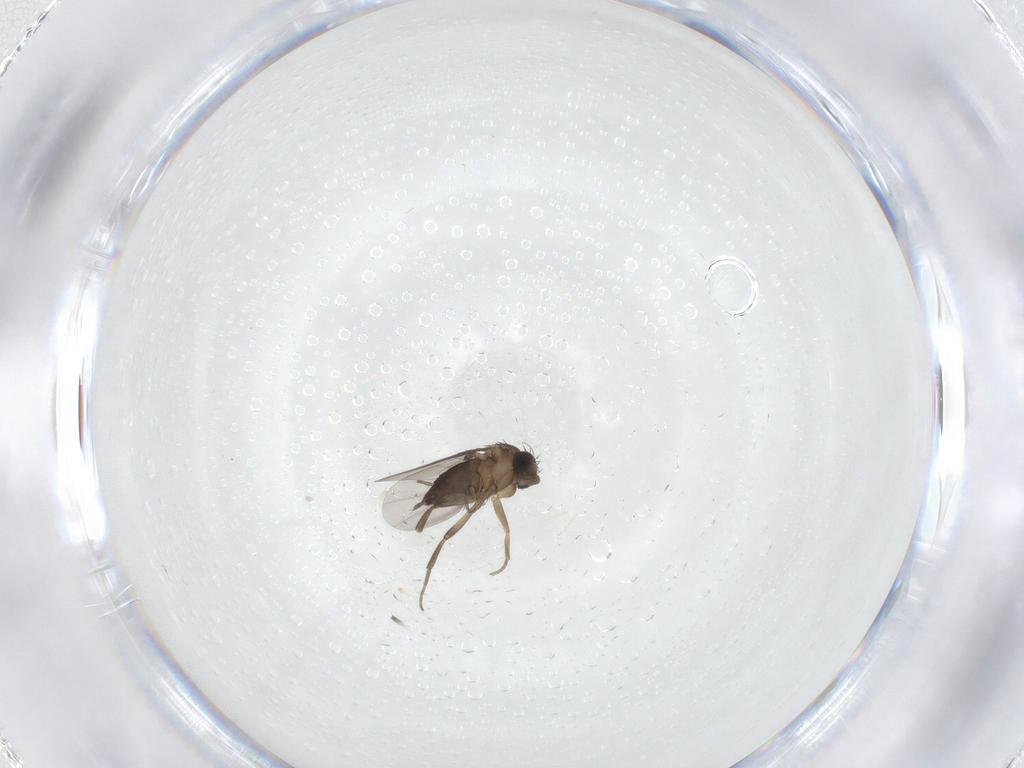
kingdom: Animalia
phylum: Arthropoda
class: Insecta
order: Diptera
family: Phoridae
